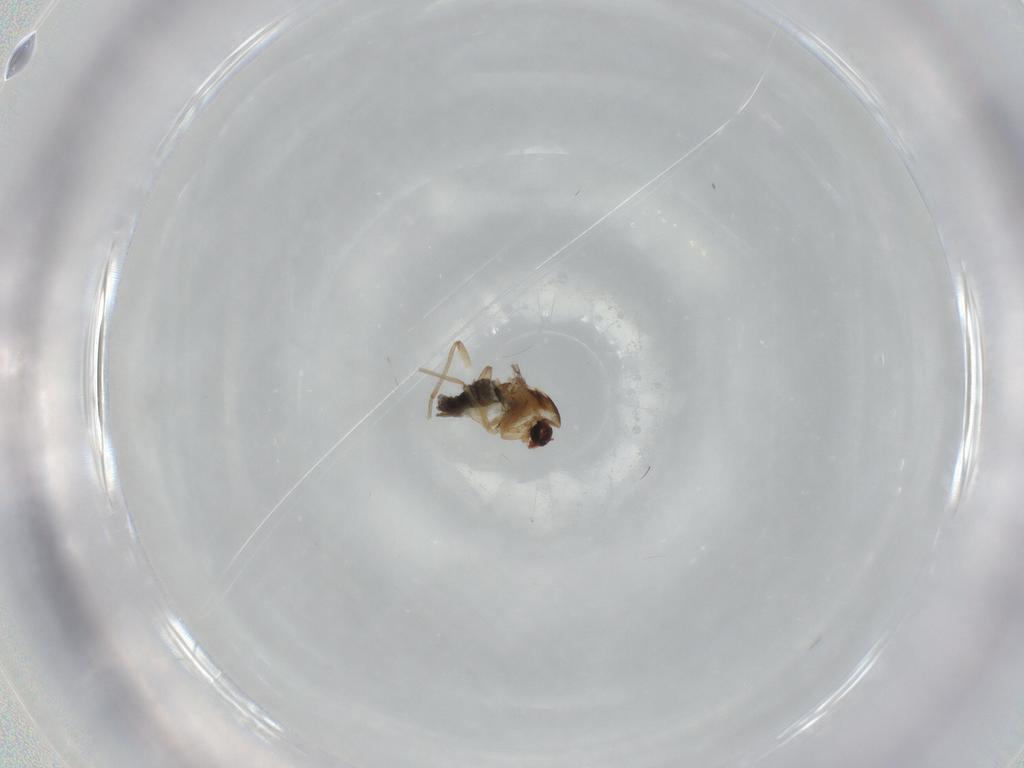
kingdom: Animalia
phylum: Arthropoda
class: Insecta
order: Diptera
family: Chironomidae
